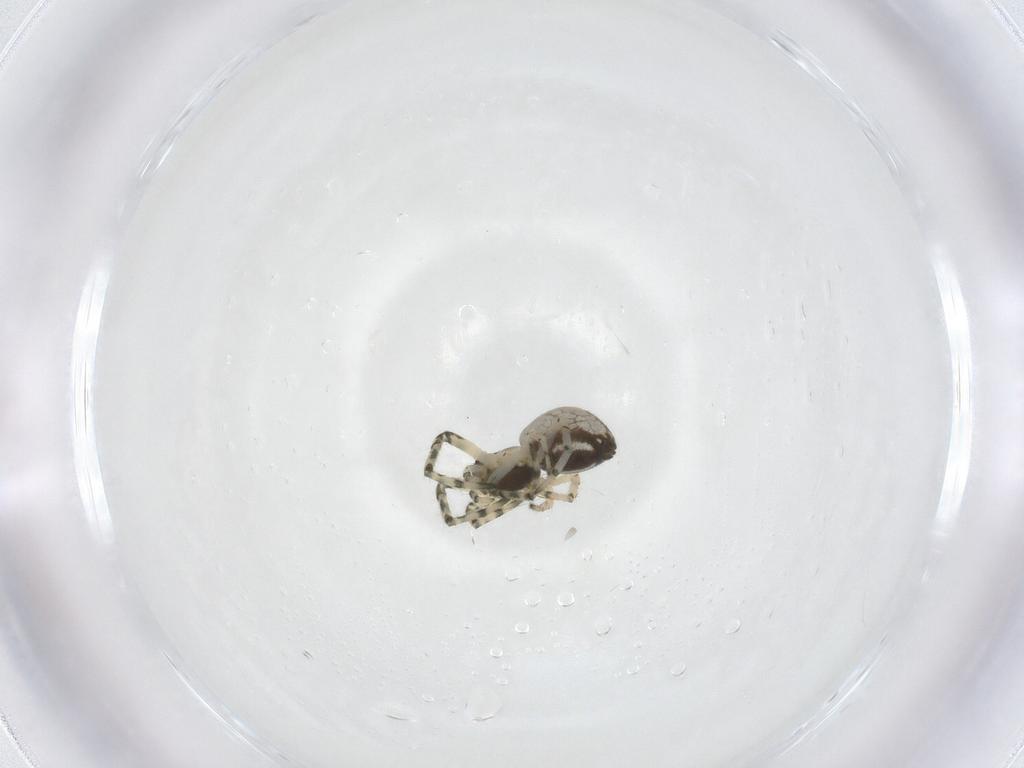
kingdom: Animalia
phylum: Arthropoda
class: Arachnida
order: Araneae
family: Tetragnathidae
